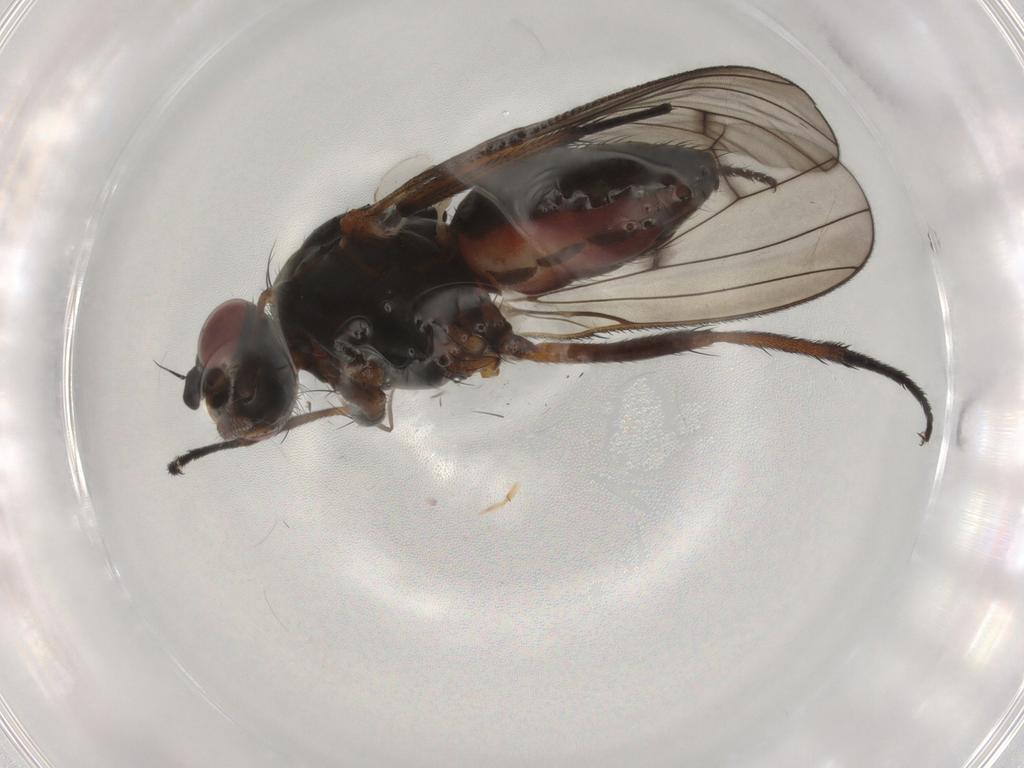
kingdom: Animalia
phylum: Arthropoda
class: Insecta
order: Diptera
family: Anthomyiidae
